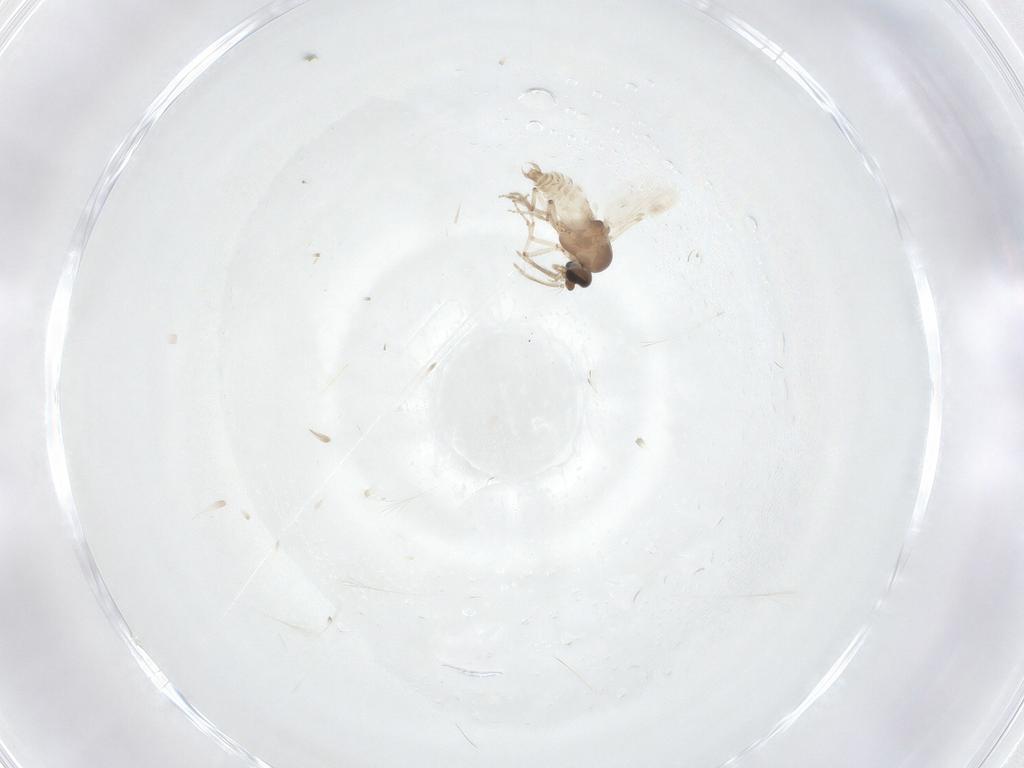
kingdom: Animalia
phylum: Arthropoda
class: Insecta
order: Diptera
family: Ceratopogonidae
